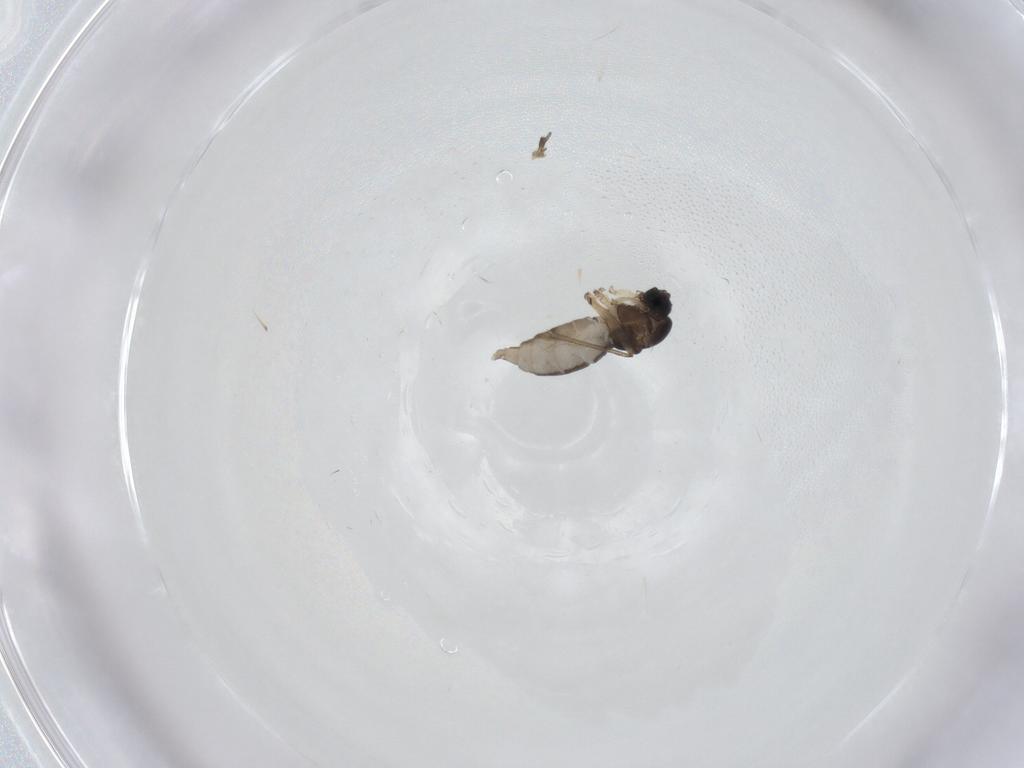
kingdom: Animalia
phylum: Arthropoda
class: Insecta
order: Diptera
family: Sciaridae
